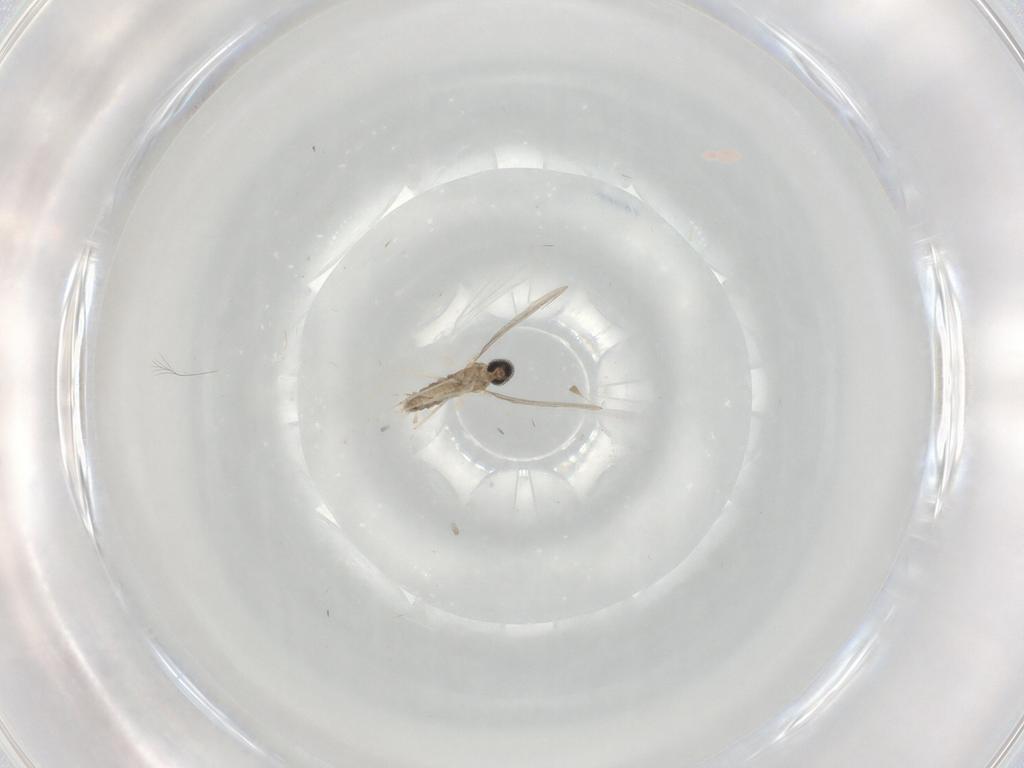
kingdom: Animalia
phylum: Arthropoda
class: Insecta
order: Diptera
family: Cecidomyiidae
